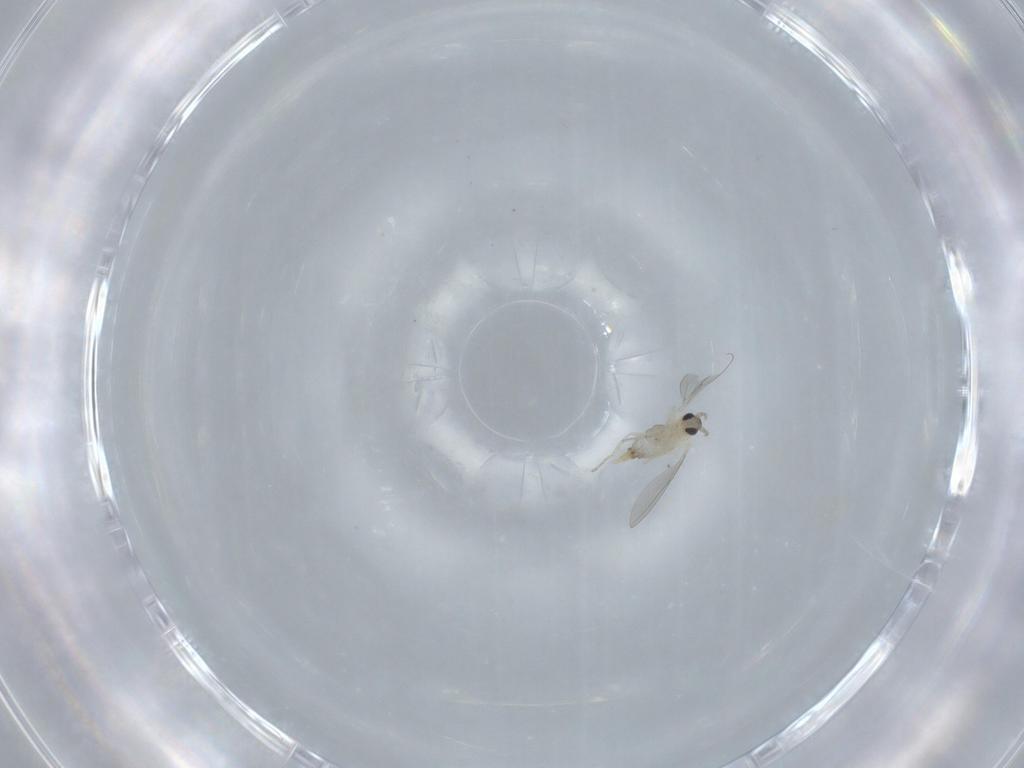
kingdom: Animalia
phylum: Arthropoda
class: Insecta
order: Diptera
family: Cecidomyiidae
